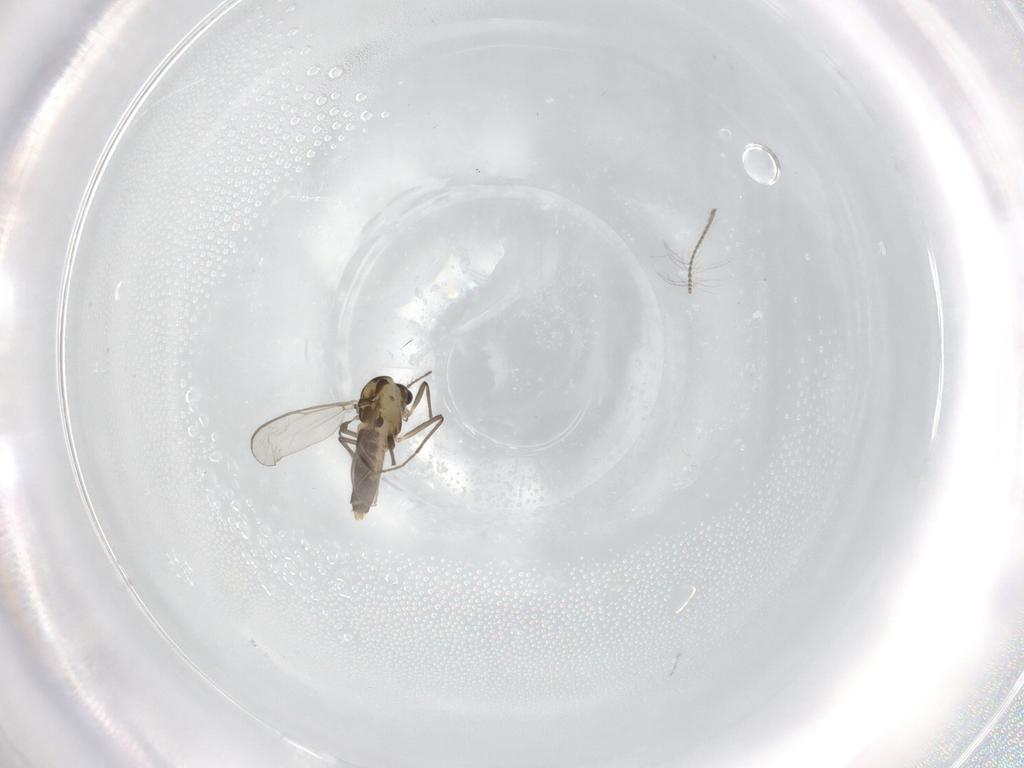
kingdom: Animalia
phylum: Arthropoda
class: Insecta
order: Diptera
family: Chironomidae
